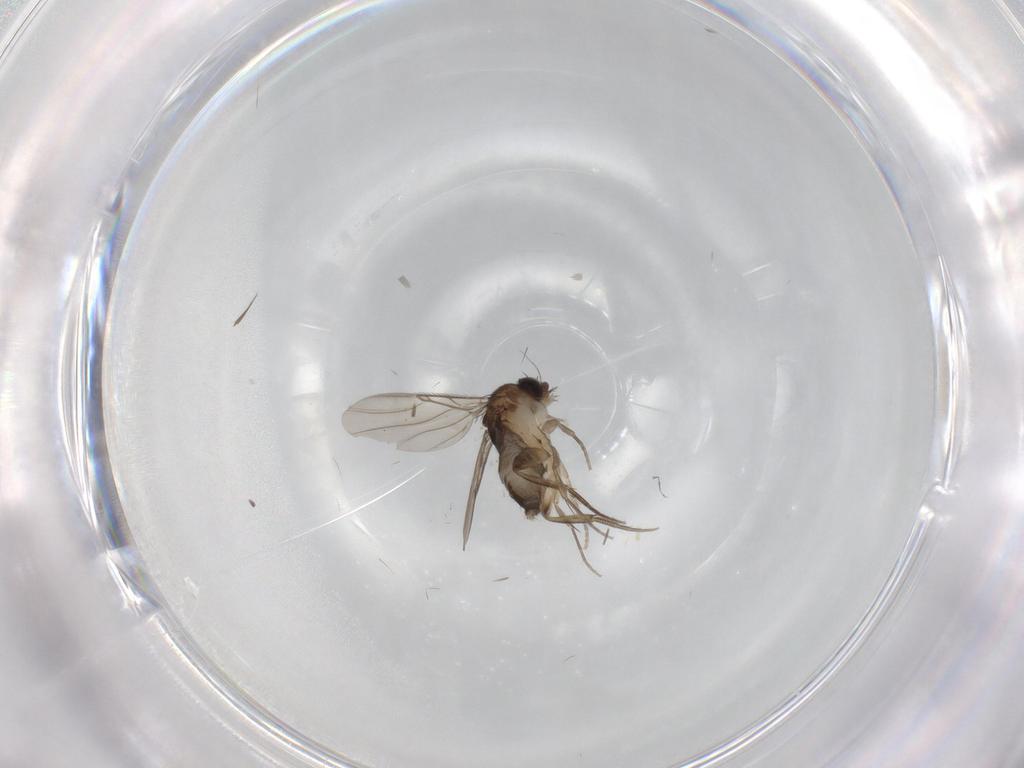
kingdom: Animalia
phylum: Arthropoda
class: Insecta
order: Diptera
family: Phoridae
